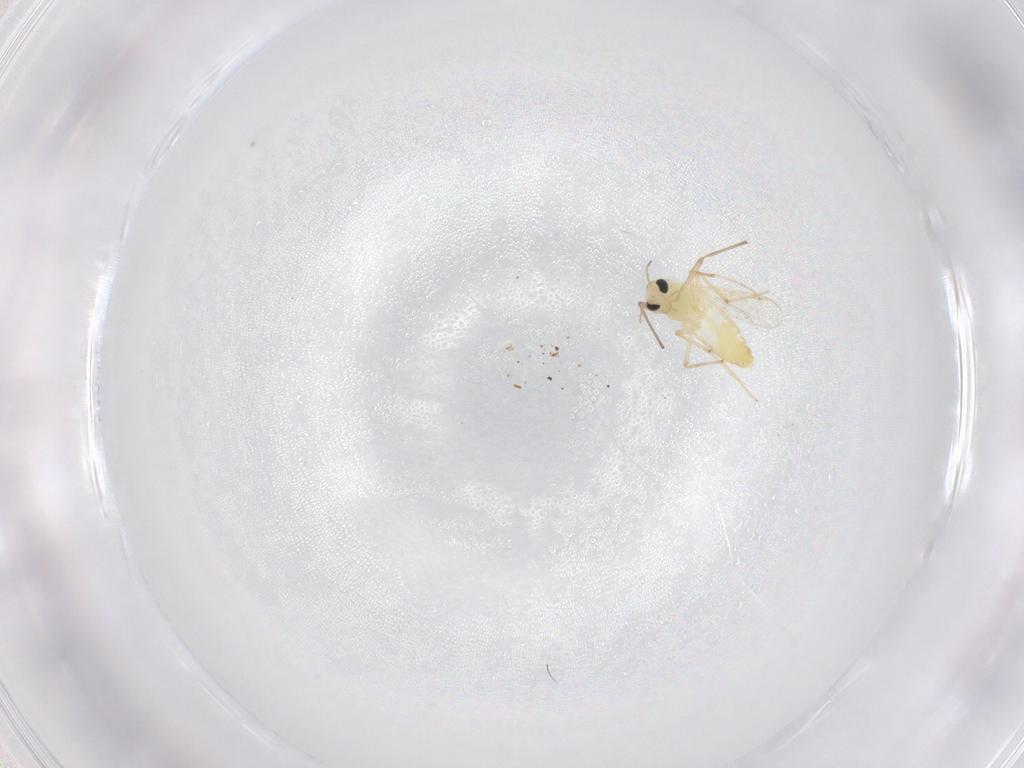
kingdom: Animalia
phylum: Arthropoda
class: Insecta
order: Diptera
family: Chironomidae
